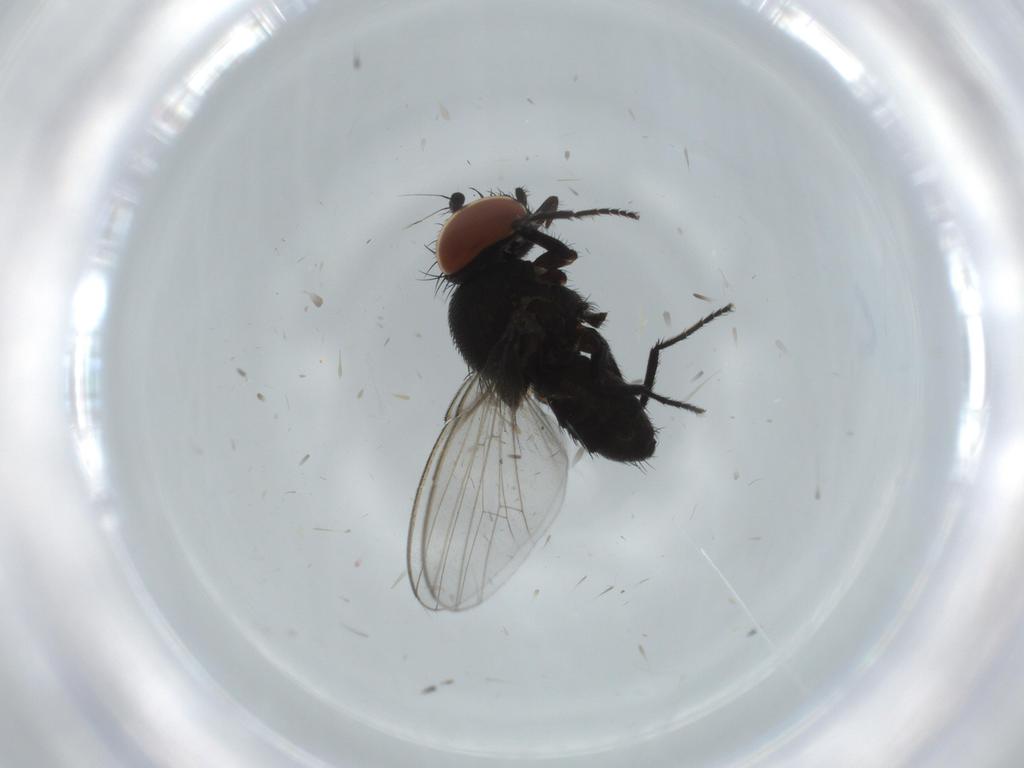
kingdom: Animalia
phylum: Arthropoda
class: Insecta
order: Diptera
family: Milichiidae
